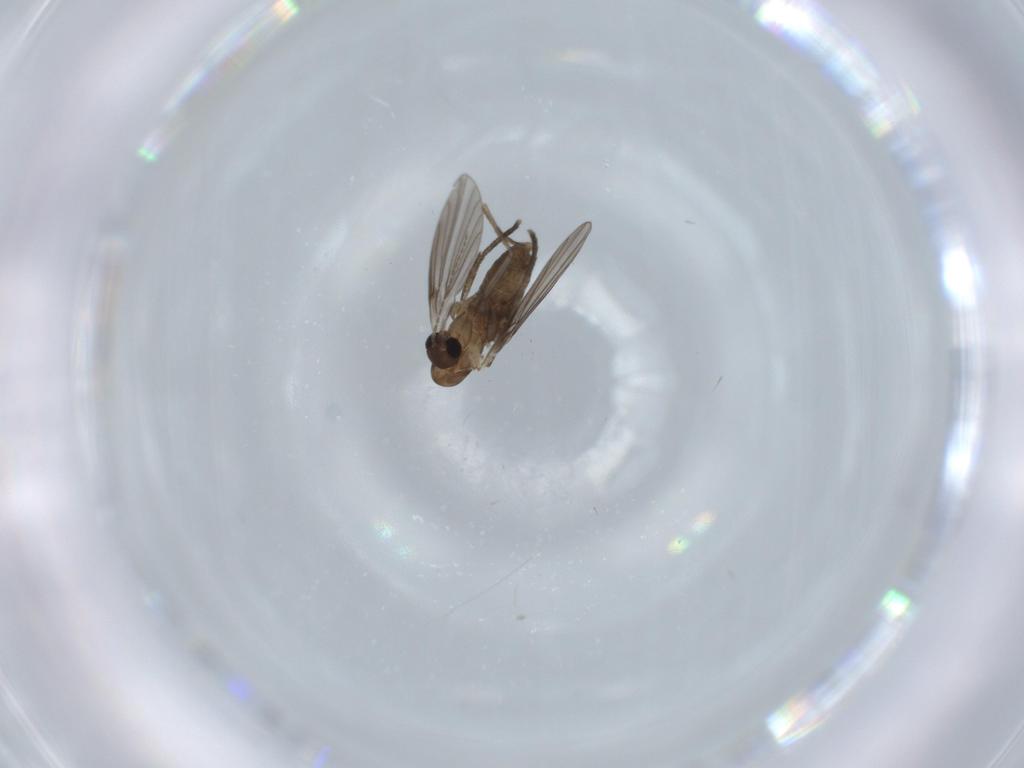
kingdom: Animalia
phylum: Arthropoda
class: Insecta
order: Diptera
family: Psychodidae
